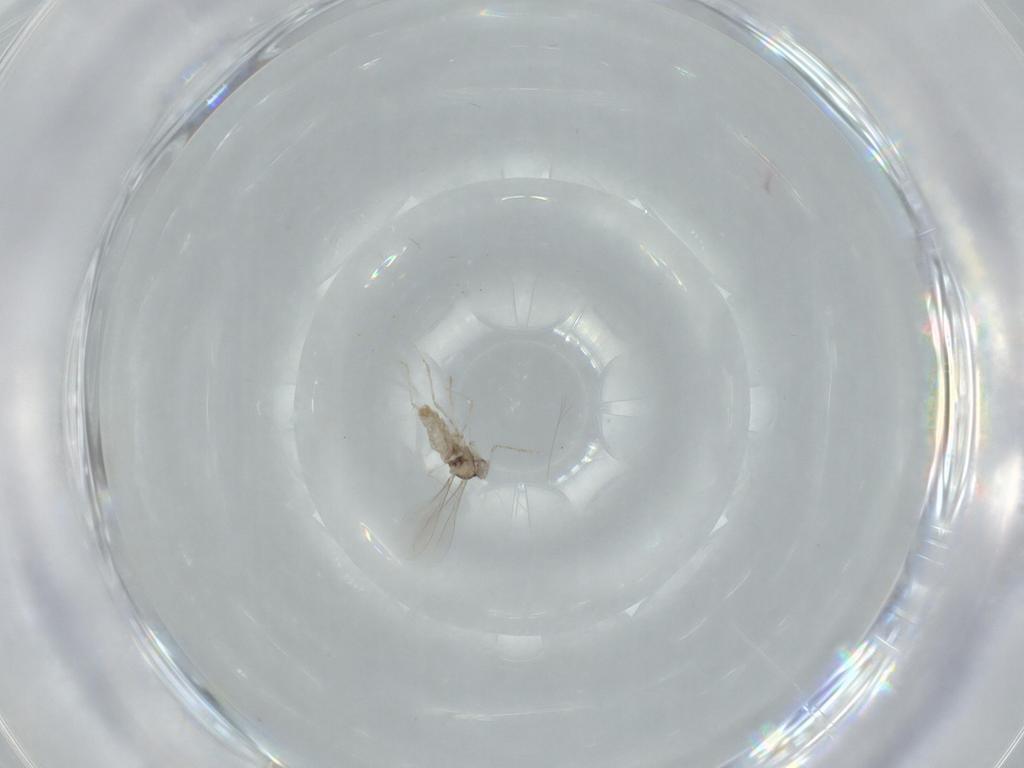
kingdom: Animalia
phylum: Arthropoda
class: Insecta
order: Diptera
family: Cecidomyiidae
